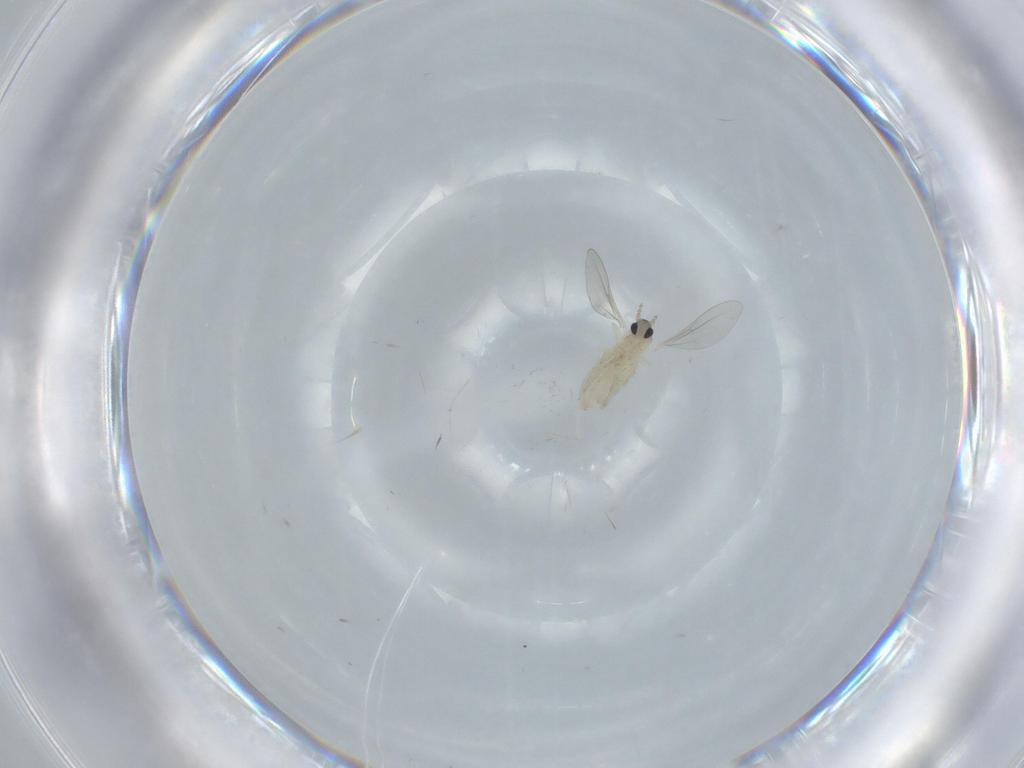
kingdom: Animalia
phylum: Arthropoda
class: Insecta
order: Diptera
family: Sciaridae
